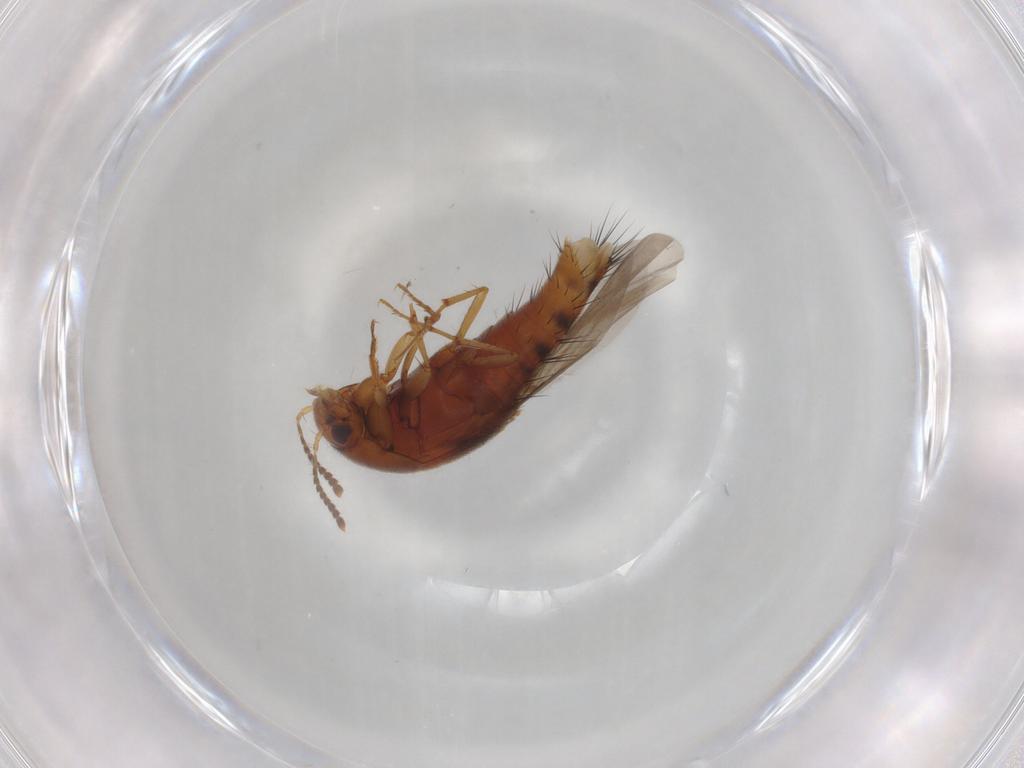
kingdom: Animalia
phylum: Arthropoda
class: Insecta
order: Coleoptera
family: Staphylinidae
